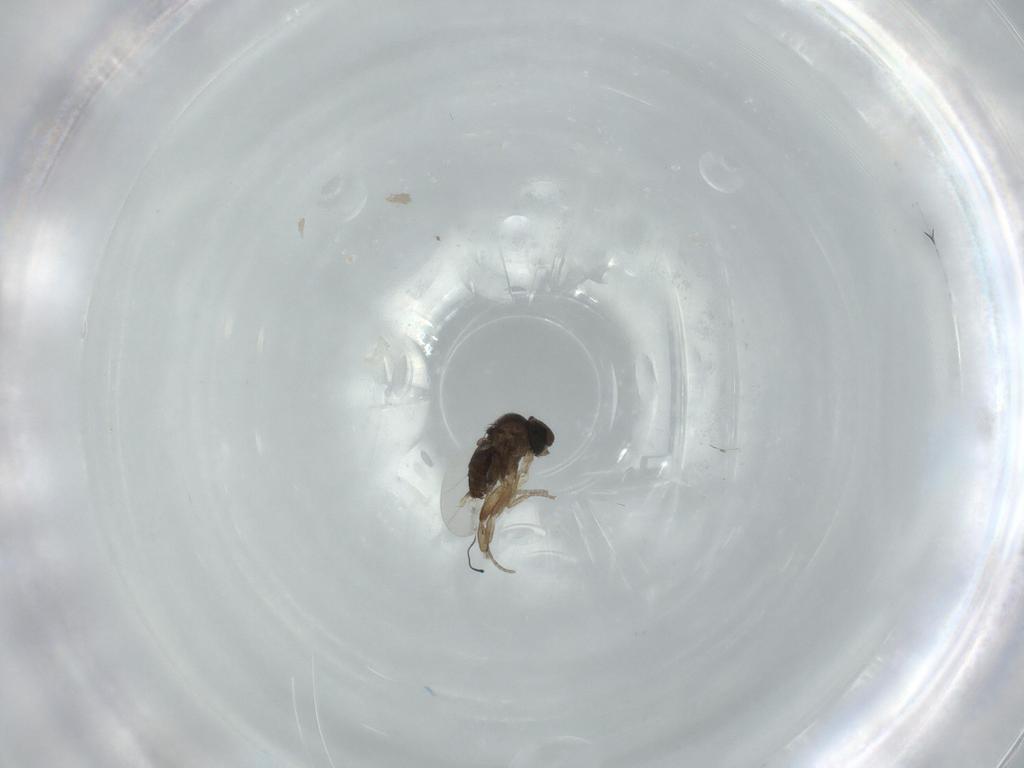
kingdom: Animalia
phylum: Arthropoda
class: Insecta
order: Diptera
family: Phoridae
